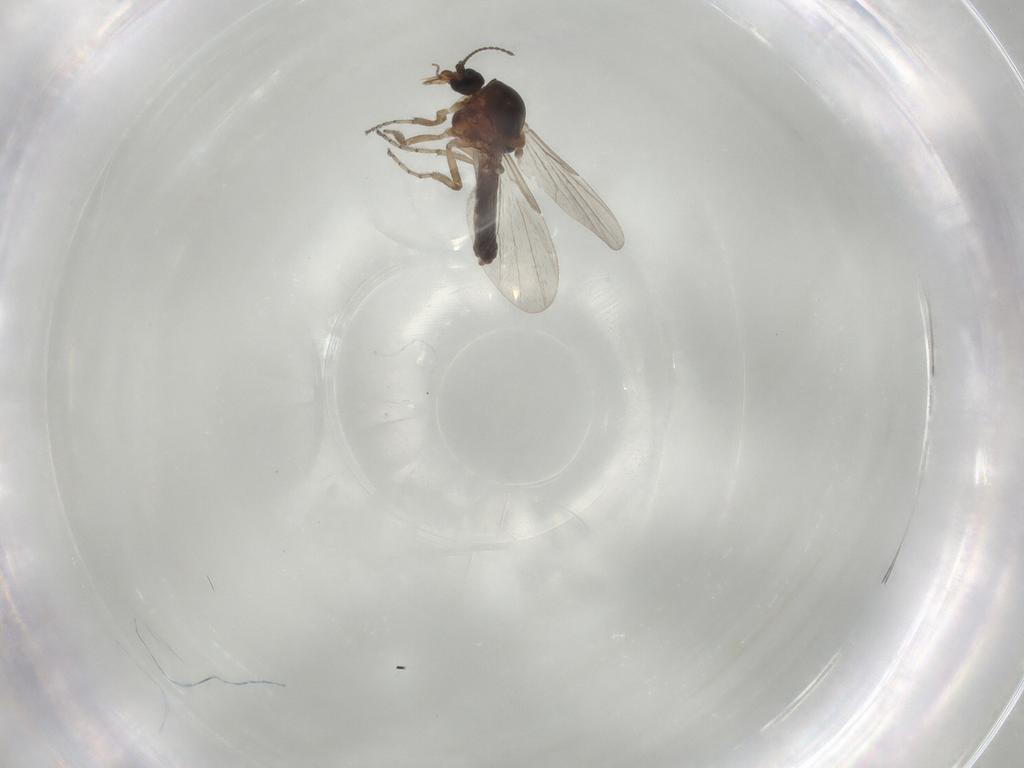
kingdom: Animalia
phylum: Arthropoda
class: Insecta
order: Diptera
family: Ceratopogonidae
